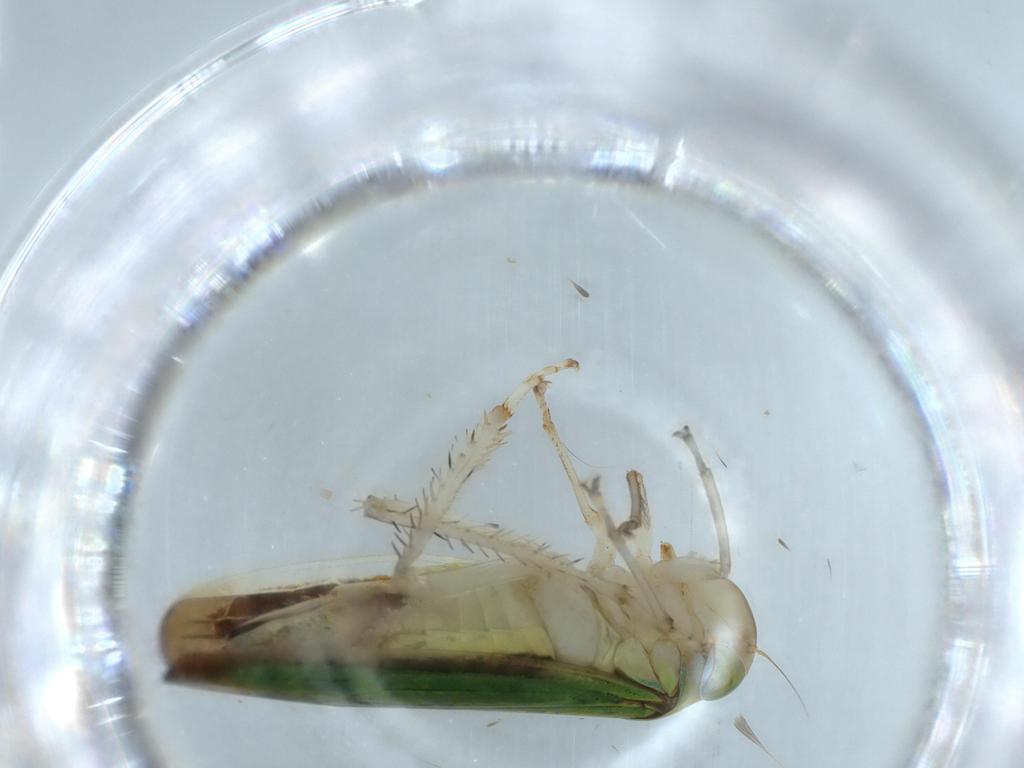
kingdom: Animalia
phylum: Arthropoda
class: Insecta
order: Hemiptera
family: Cicadellidae
